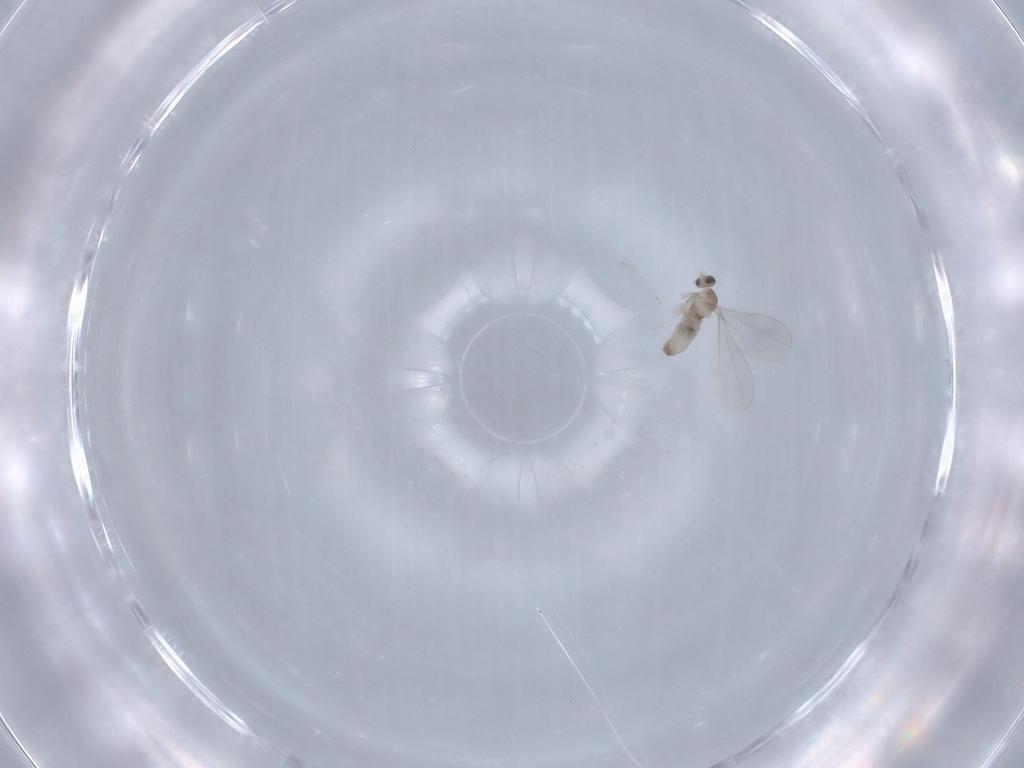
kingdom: Animalia
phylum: Arthropoda
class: Insecta
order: Diptera
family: Cecidomyiidae
